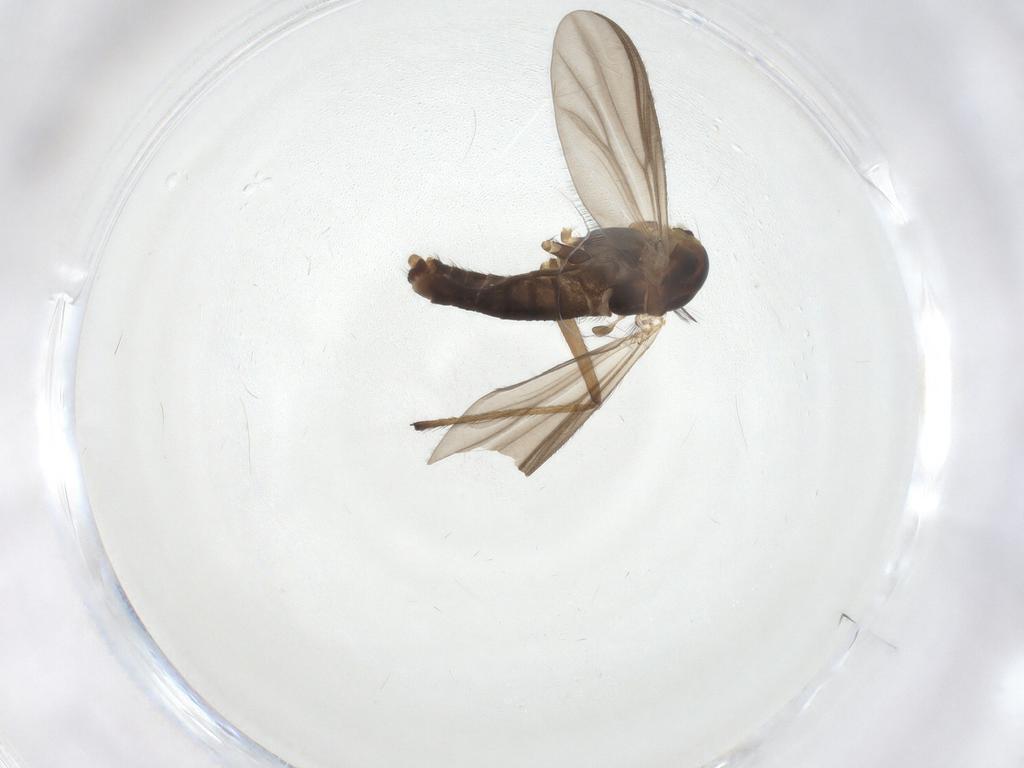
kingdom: Animalia
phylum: Arthropoda
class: Insecta
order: Diptera
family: Chironomidae
